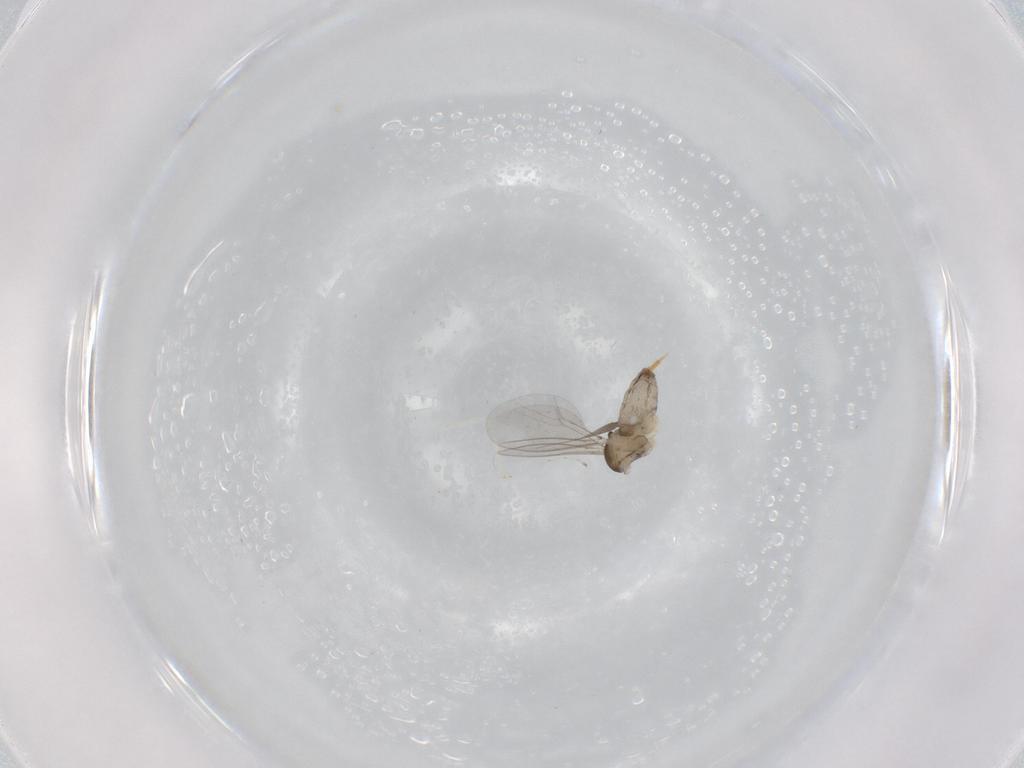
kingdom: Animalia
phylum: Arthropoda
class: Insecta
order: Diptera
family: Cecidomyiidae
